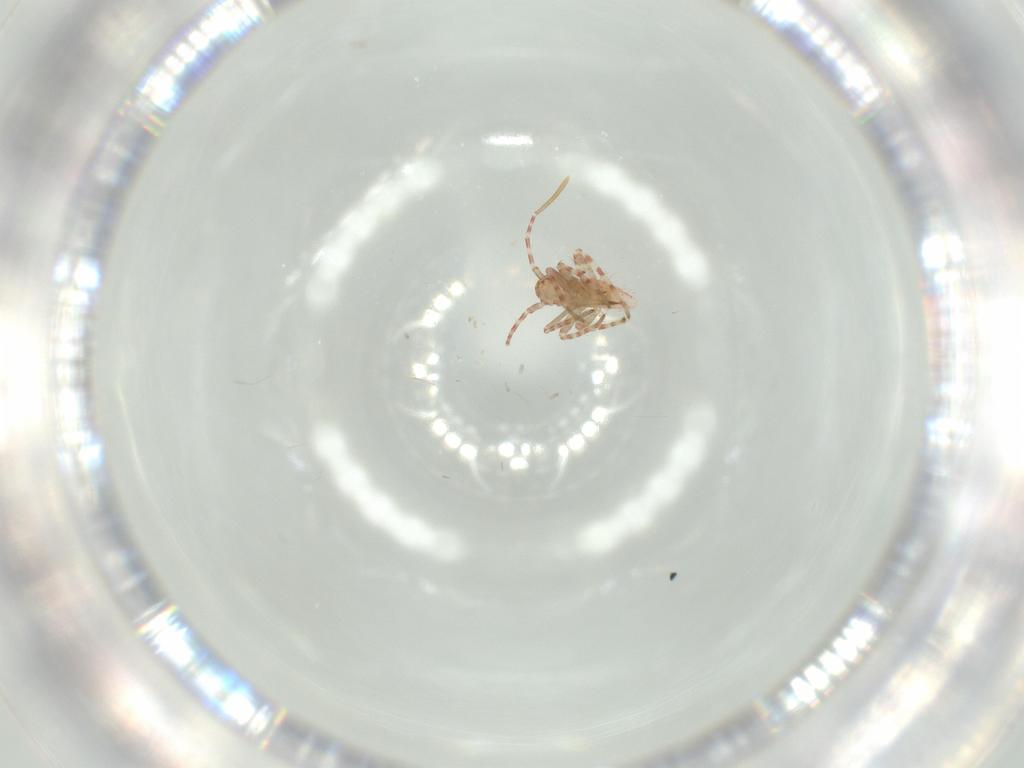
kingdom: Animalia
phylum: Arthropoda
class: Insecta
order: Hemiptera
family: Miridae
